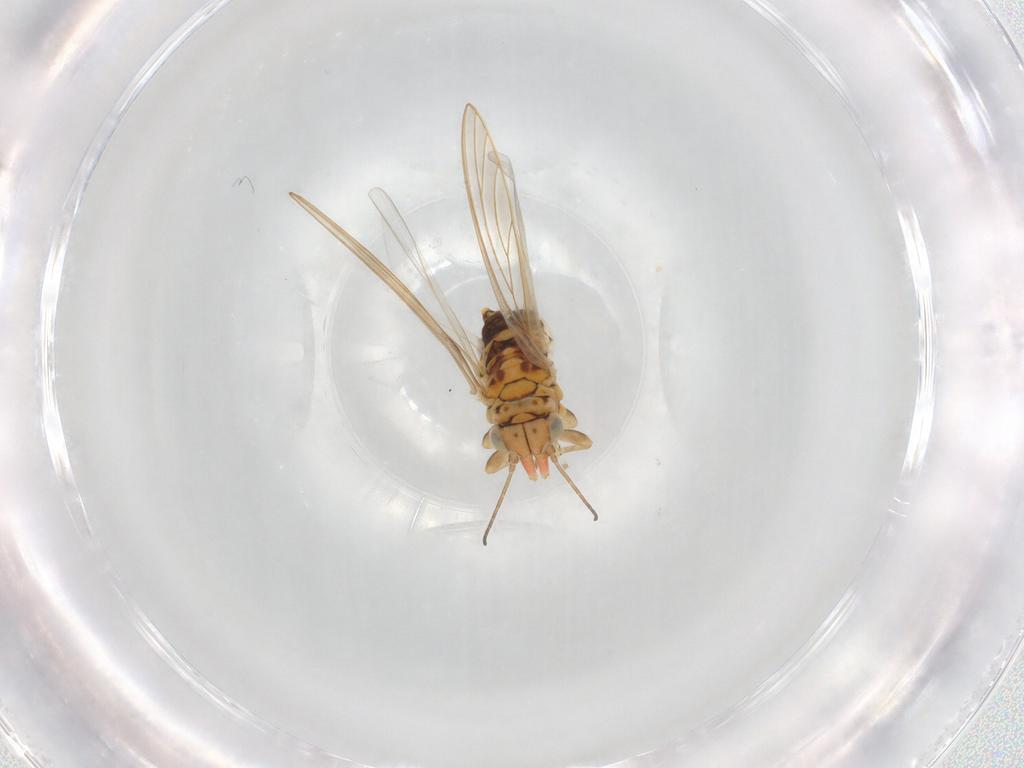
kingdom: Animalia
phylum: Arthropoda
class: Insecta
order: Hemiptera
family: Aphalaridae
